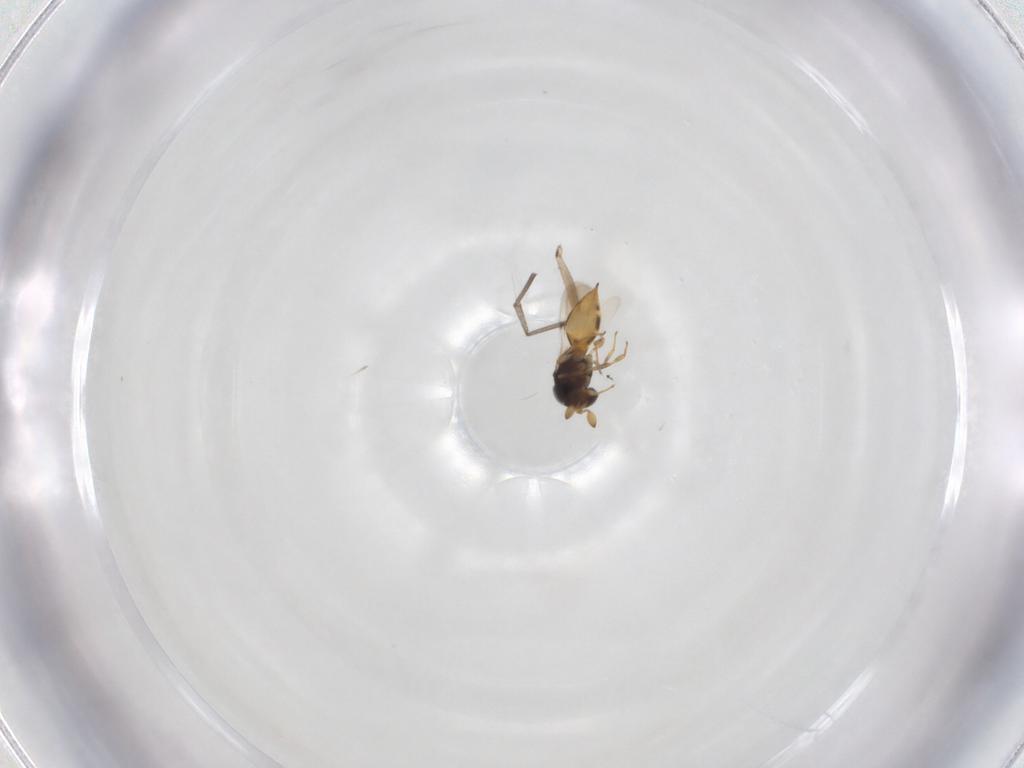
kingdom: Animalia
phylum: Arthropoda
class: Insecta
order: Hymenoptera
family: Scelionidae
